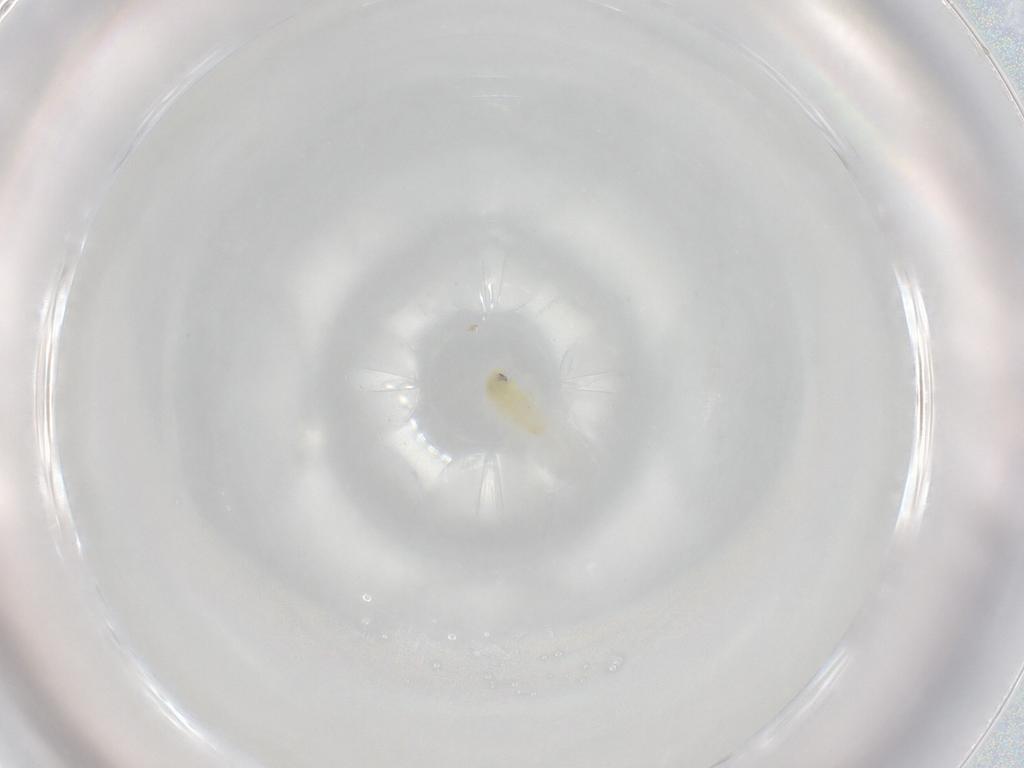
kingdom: Animalia
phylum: Arthropoda
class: Insecta
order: Hemiptera
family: Aleyrodidae
